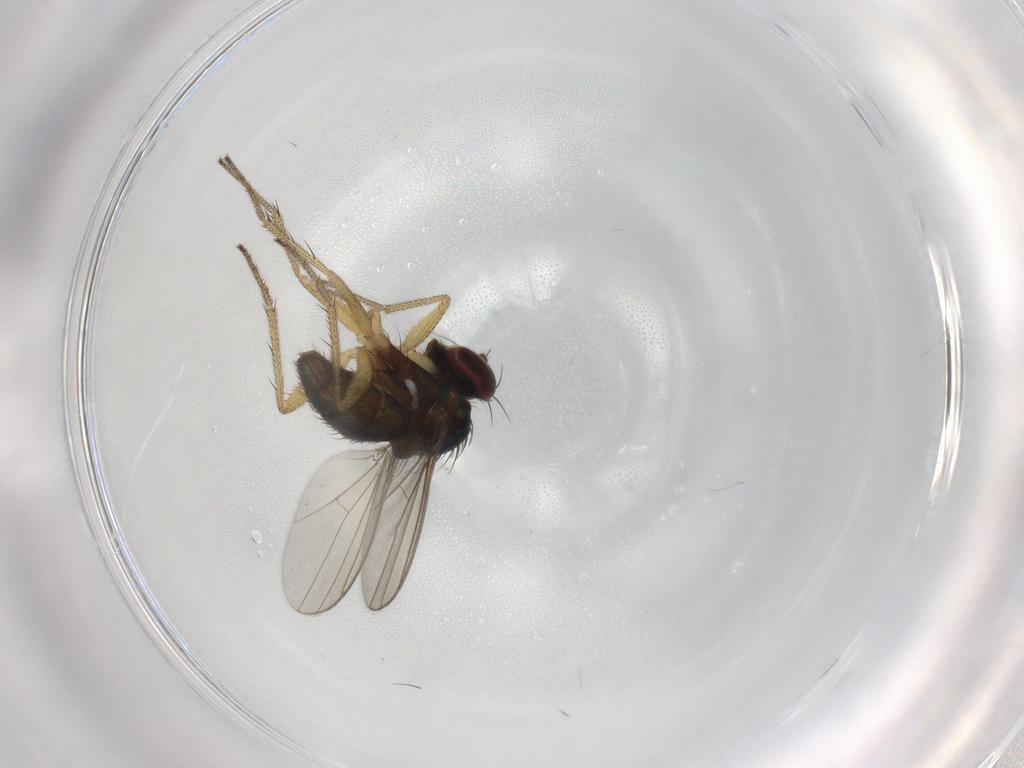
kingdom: Animalia
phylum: Arthropoda
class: Insecta
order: Diptera
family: Dolichopodidae
